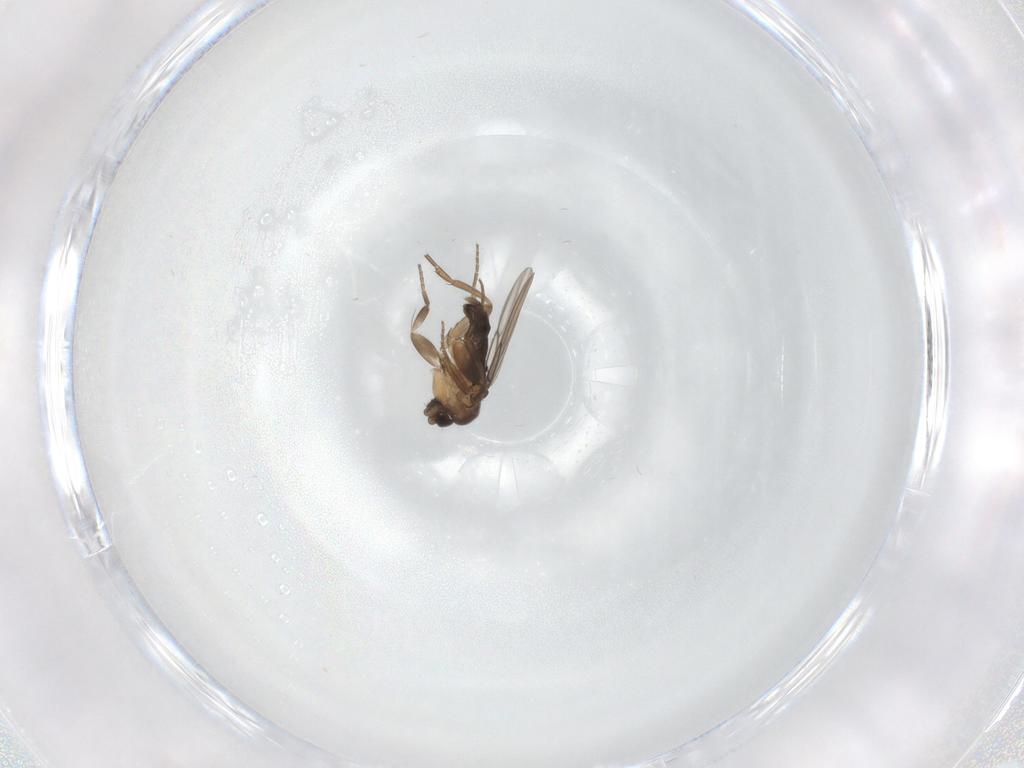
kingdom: Animalia
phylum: Arthropoda
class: Insecta
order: Diptera
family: Phoridae
